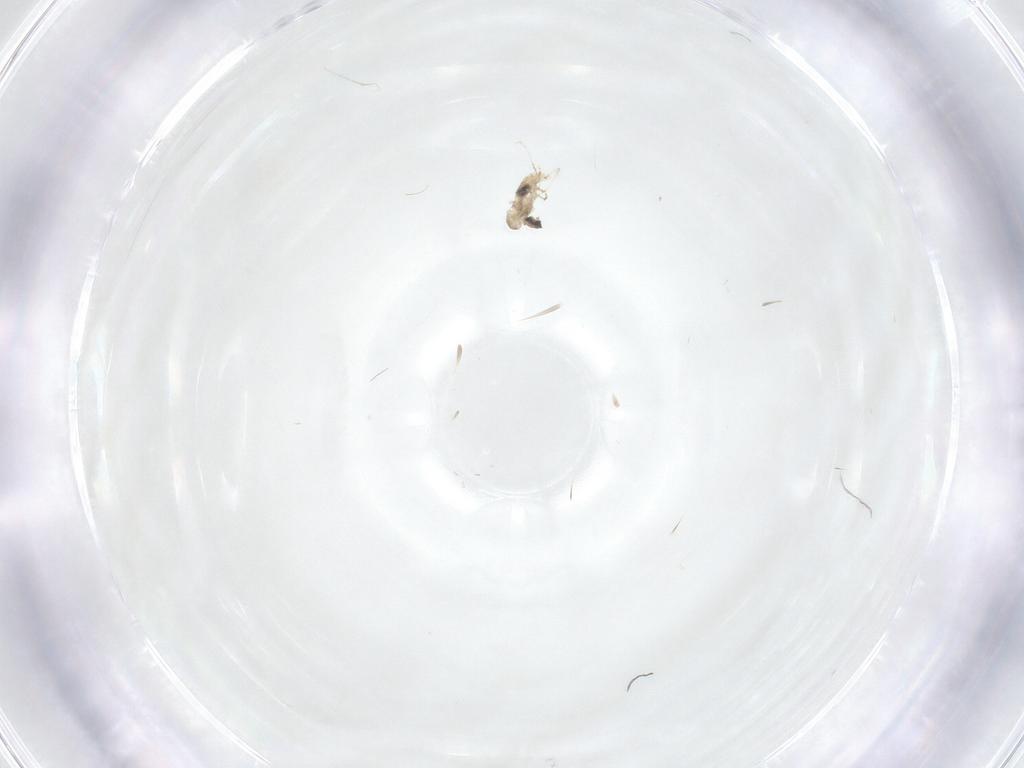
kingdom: Animalia
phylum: Arthropoda
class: Insecta
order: Diptera
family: Cecidomyiidae
